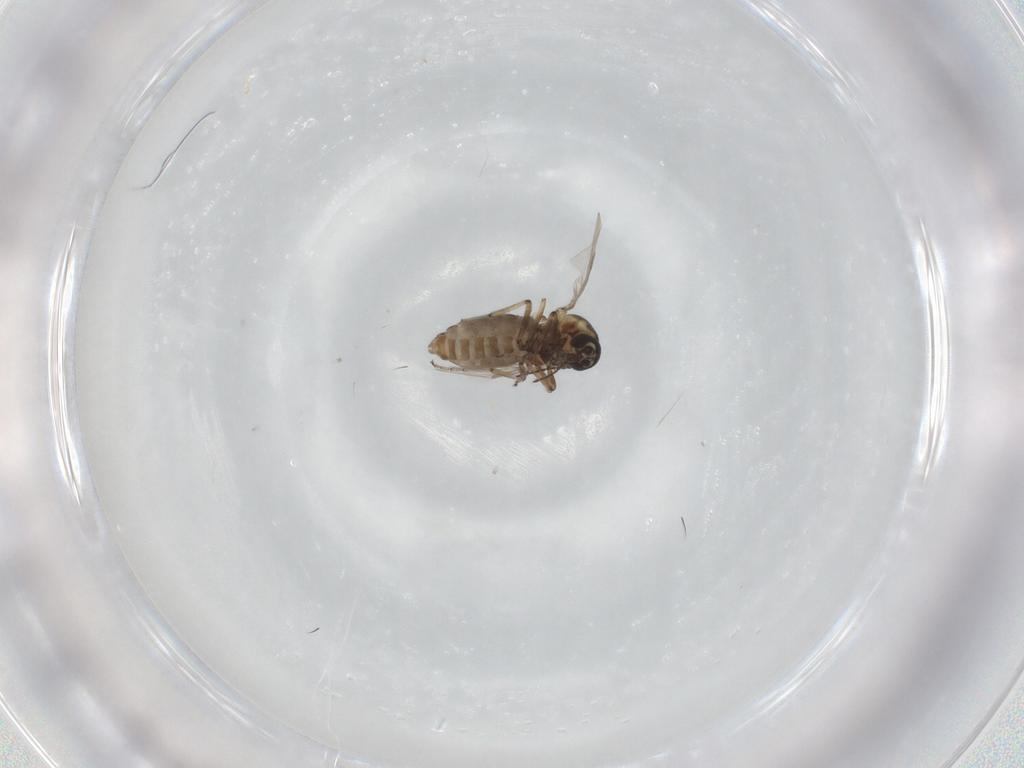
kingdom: Animalia
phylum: Arthropoda
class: Insecta
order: Diptera
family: Ceratopogonidae
